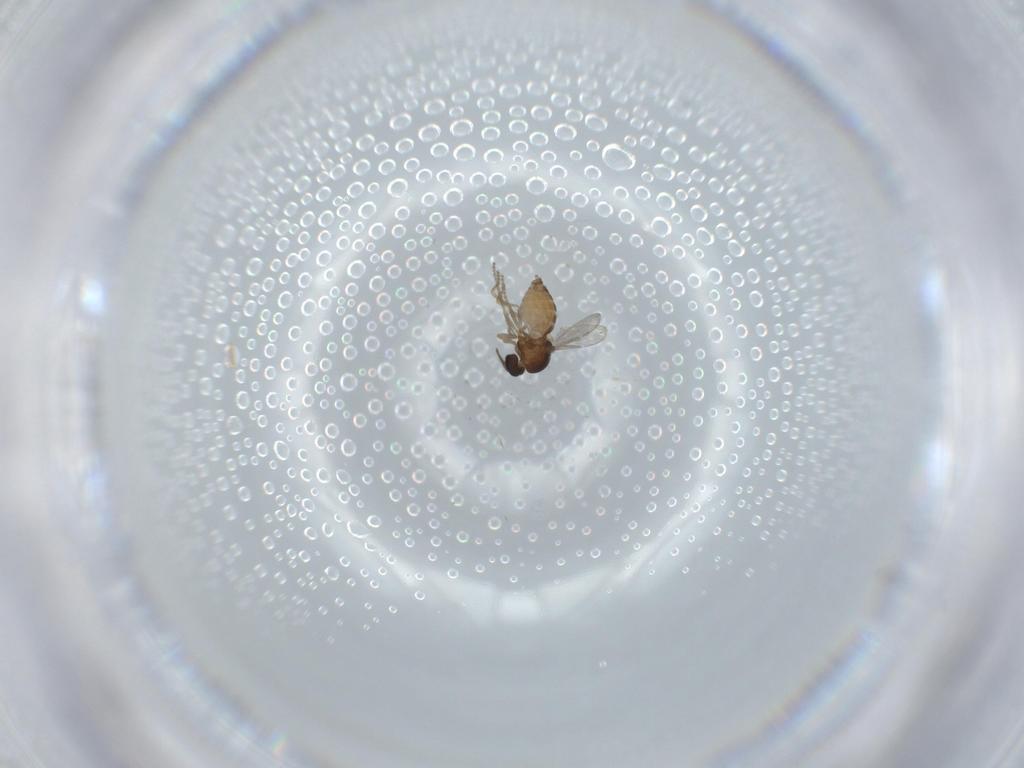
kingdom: Animalia
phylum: Arthropoda
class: Insecta
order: Diptera
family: Ceratopogonidae
